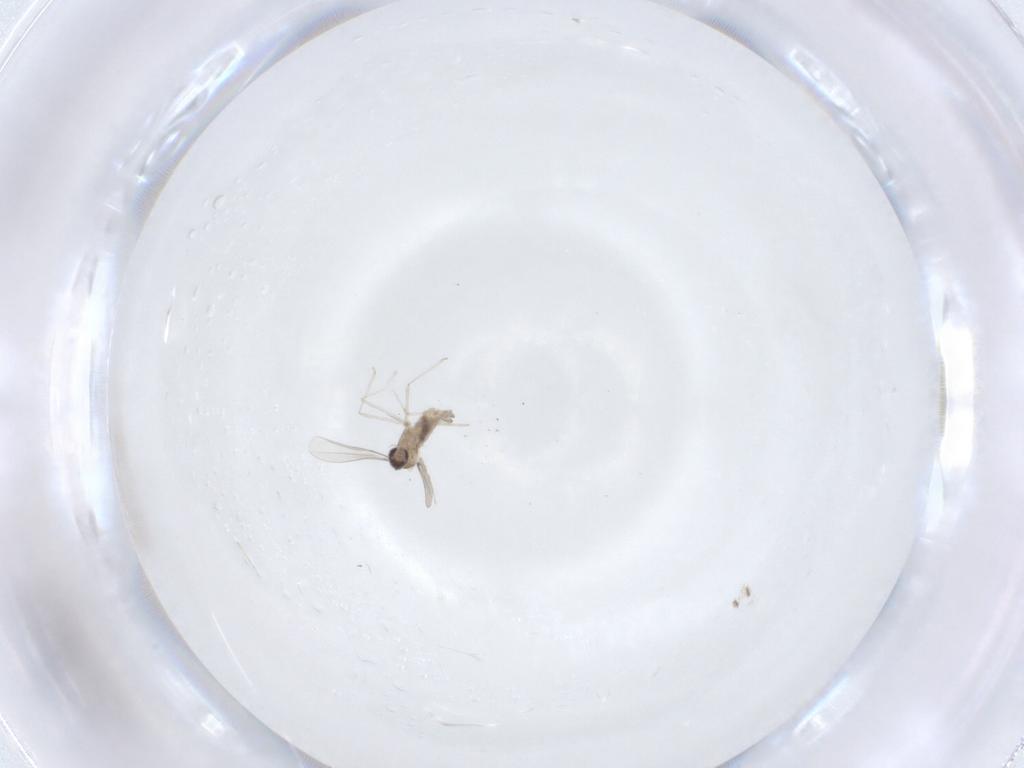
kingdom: Animalia
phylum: Arthropoda
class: Insecta
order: Diptera
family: Cecidomyiidae
